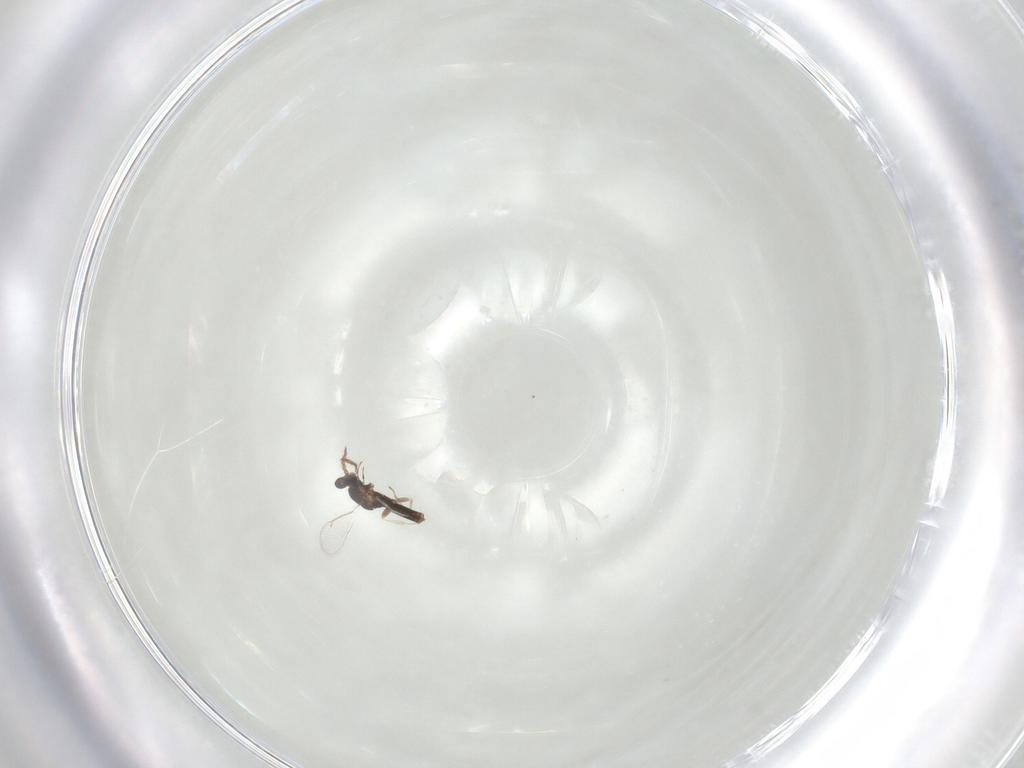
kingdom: Animalia
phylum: Arthropoda
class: Insecta
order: Hymenoptera
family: Eulophidae
